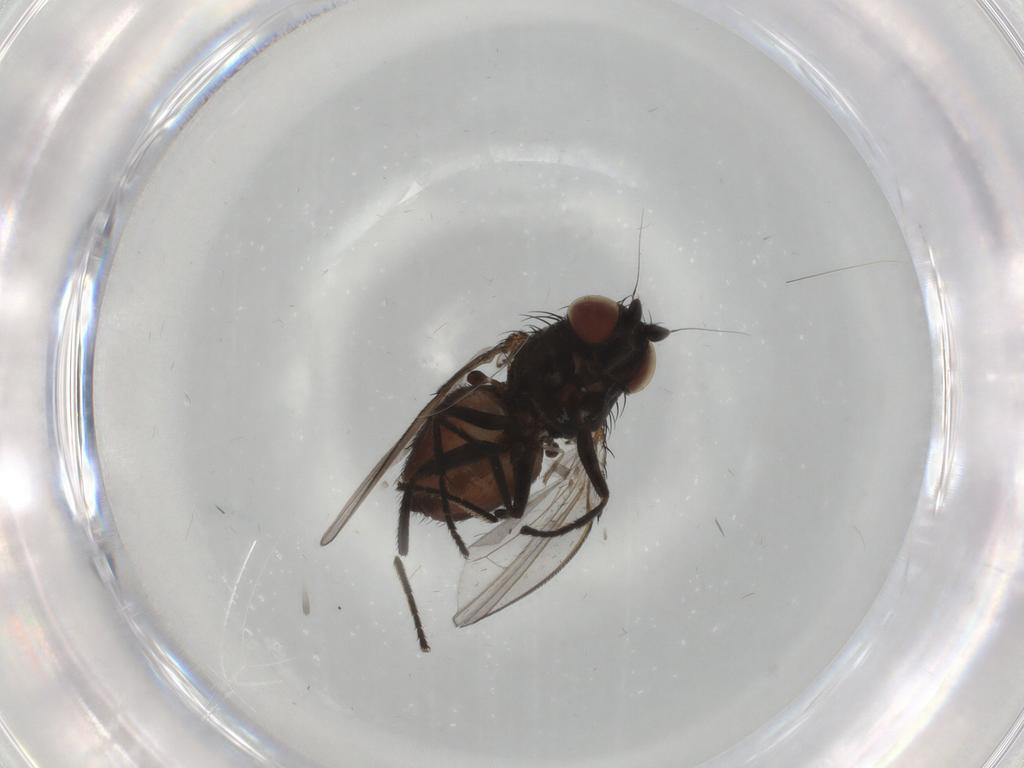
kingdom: Animalia
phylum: Arthropoda
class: Insecta
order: Diptera
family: Milichiidae
